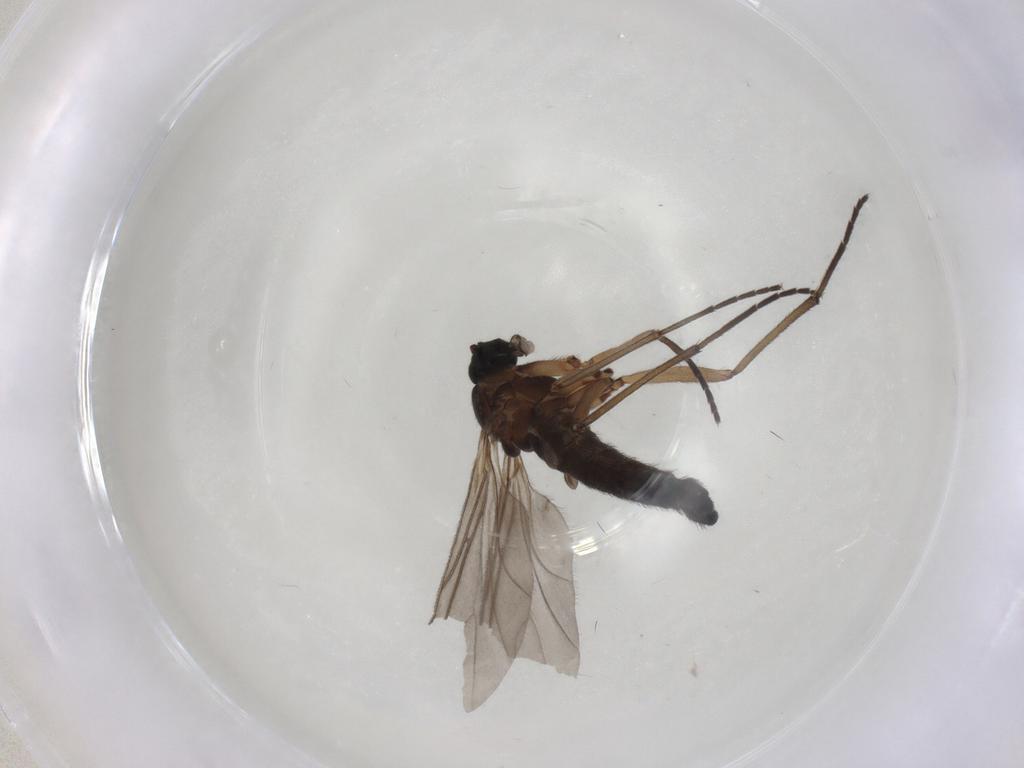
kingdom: Animalia
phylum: Arthropoda
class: Insecta
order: Diptera
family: Sciaridae
